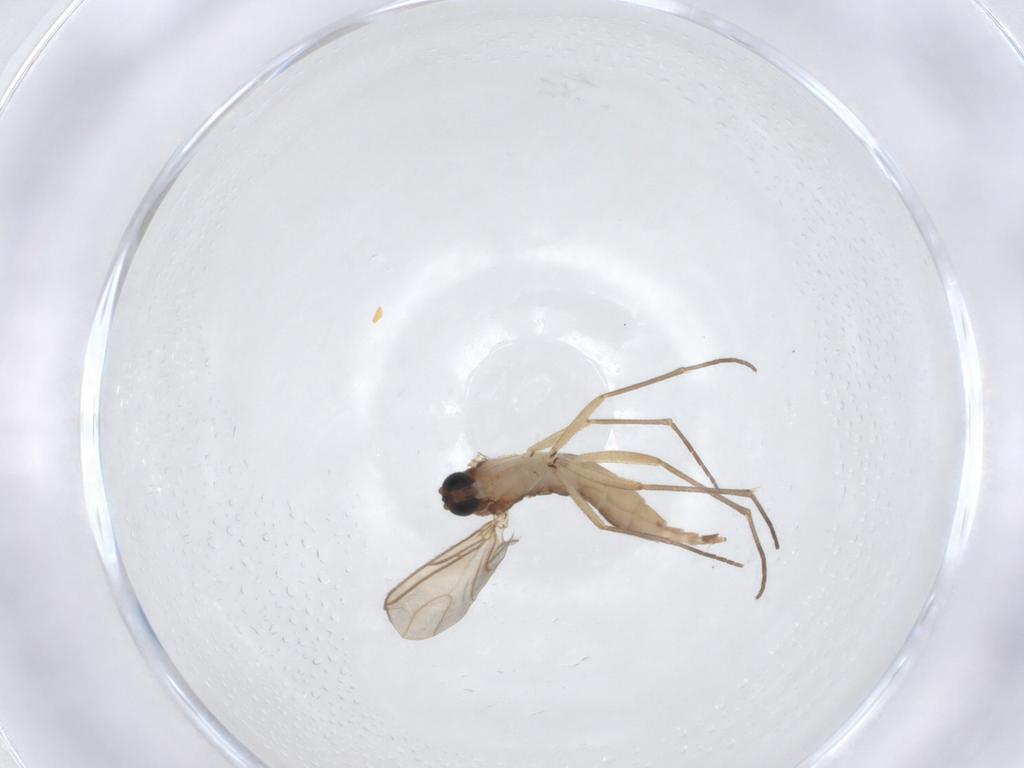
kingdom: Animalia
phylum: Arthropoda
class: Insecta
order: Diptera
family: Sciaridae
